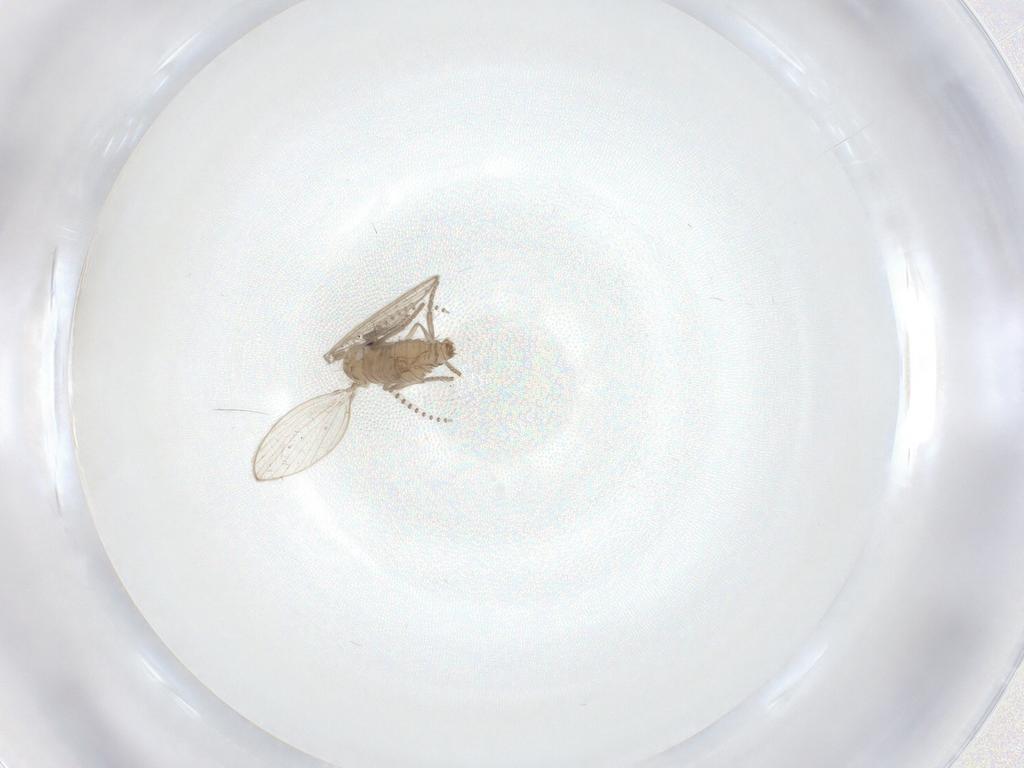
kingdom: Animalia
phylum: Arthropoda
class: Insecta
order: Diptera
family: Psychodidae
